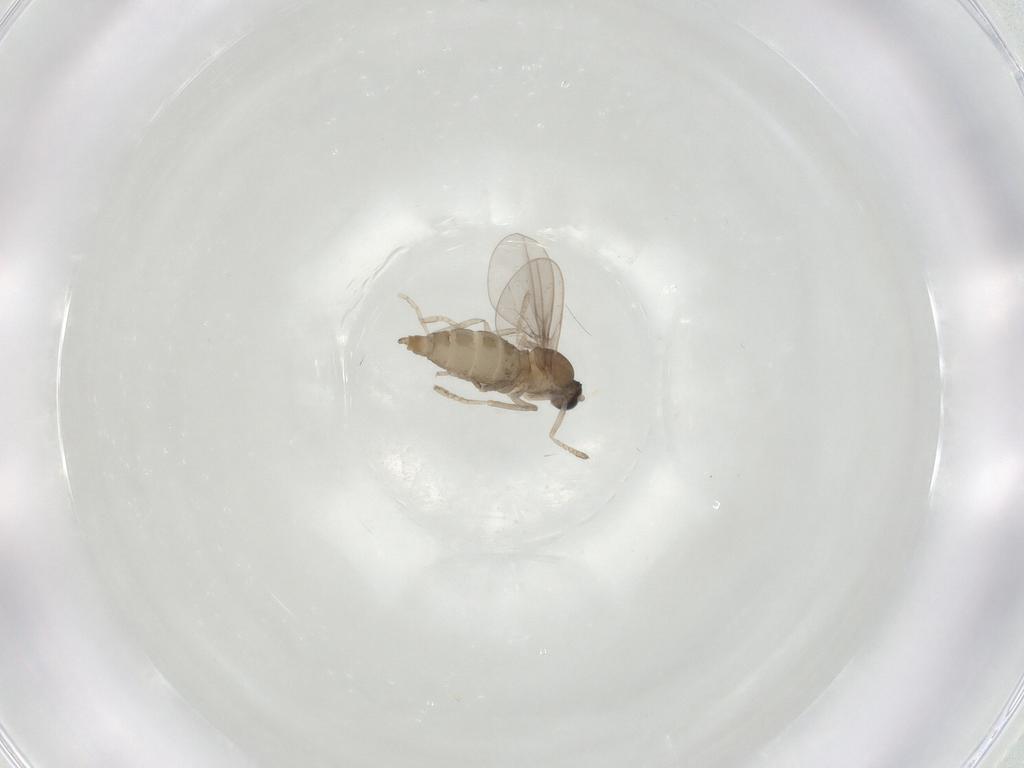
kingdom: Animalia
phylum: Arthropoda
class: Insecta
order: Diptera
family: Cecidomyiidae
